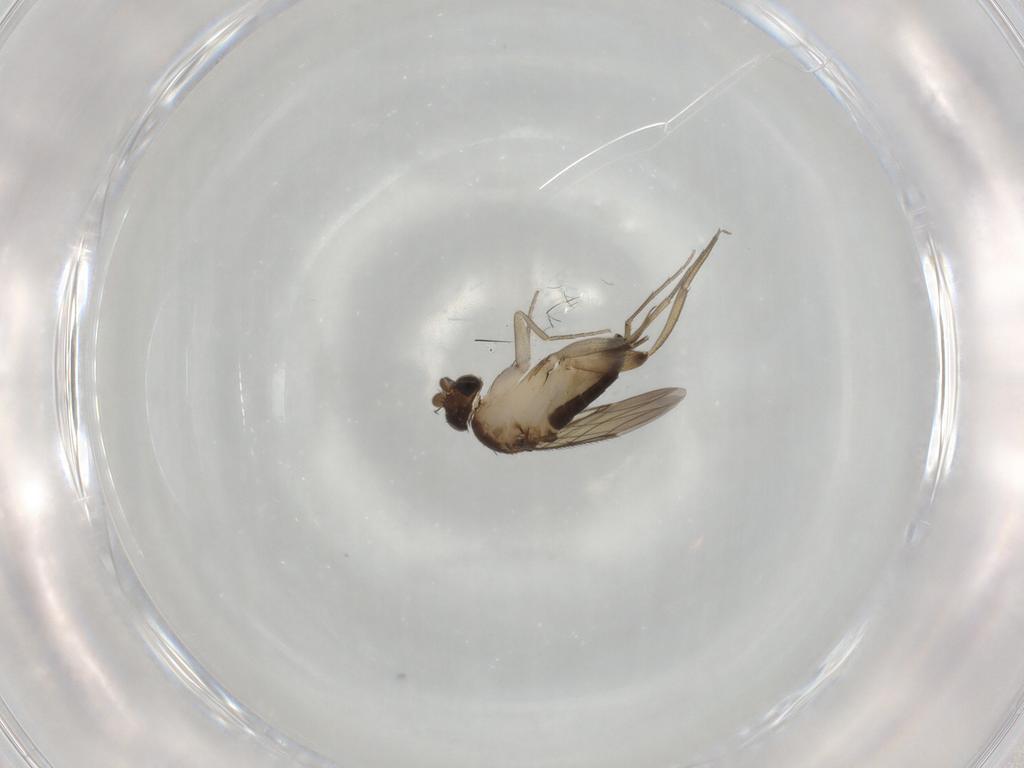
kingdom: Animalia
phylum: Arthropoda
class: Insecta
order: Diptera
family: Phoridae
